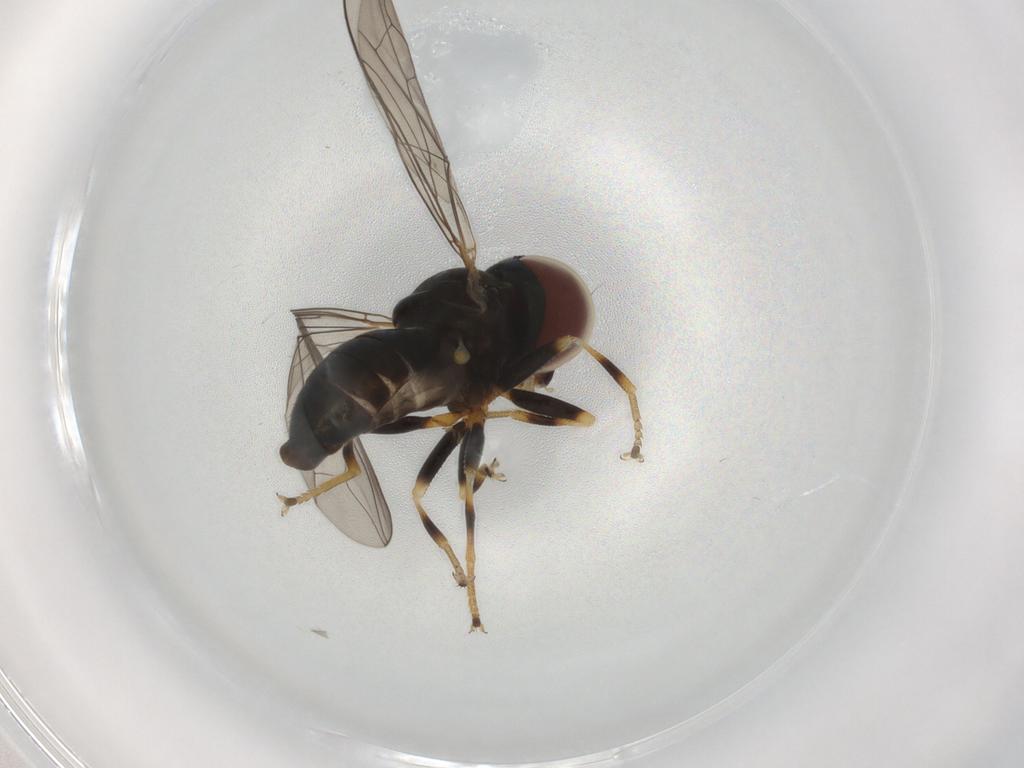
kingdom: Animalia
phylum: Arthropoda
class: Insecta
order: Diptera
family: Pipunculidae
